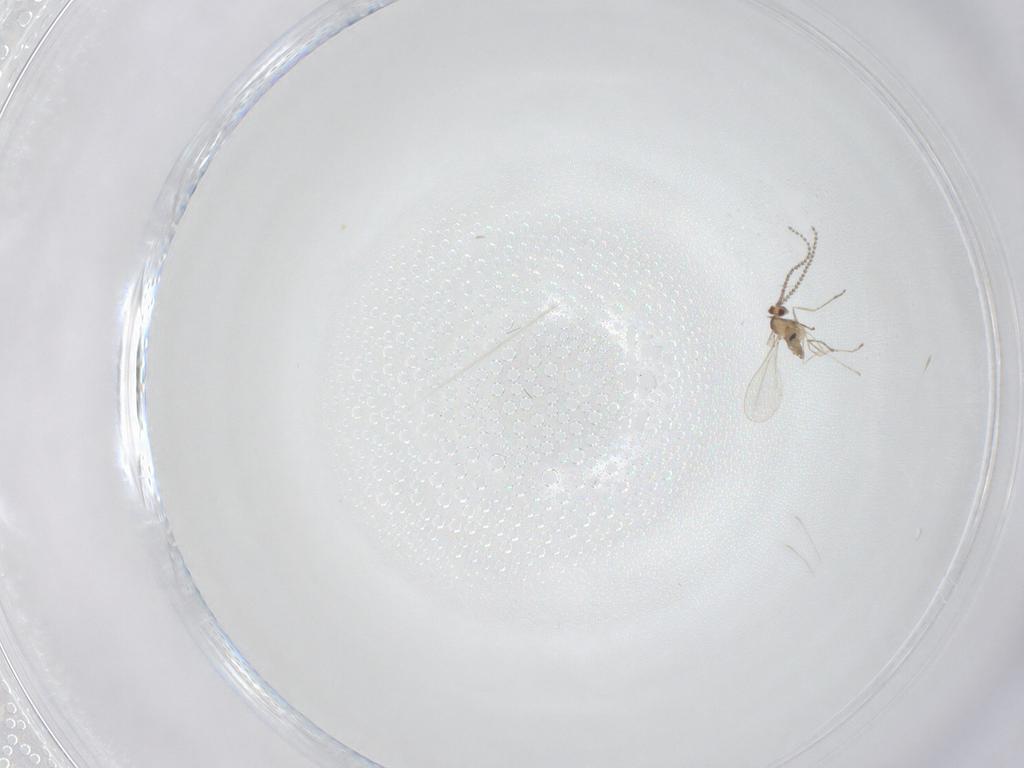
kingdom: Animalia
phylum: Arthropoda
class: Insecta
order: Diptera
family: Cecidomyiidae
